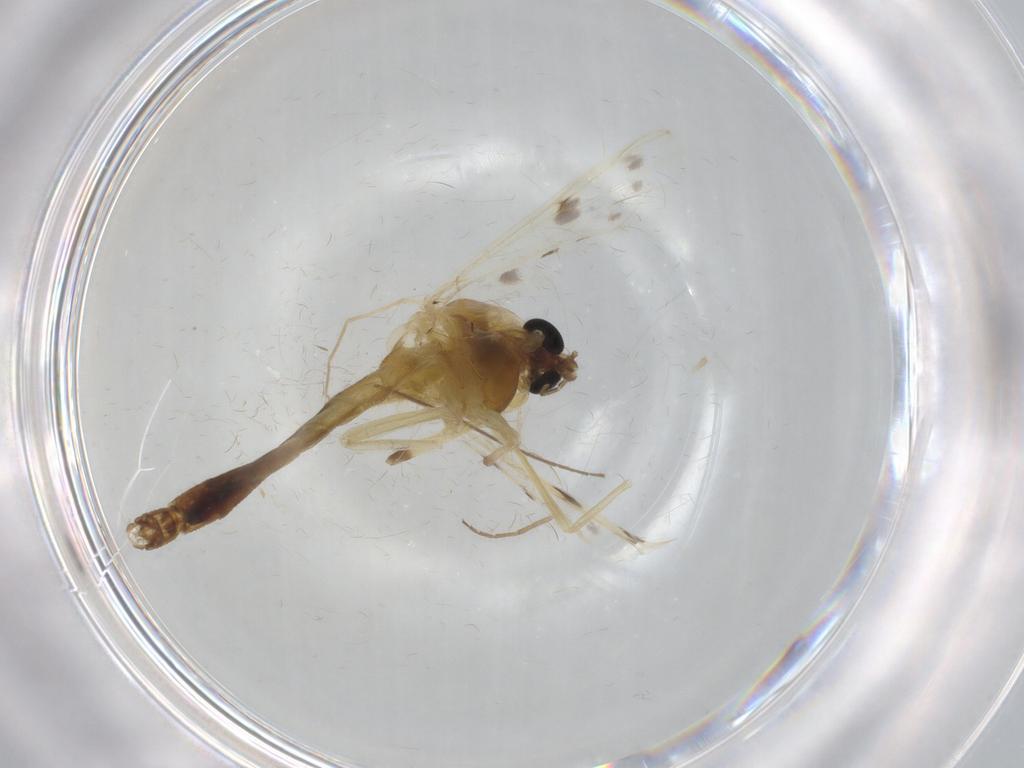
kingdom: Animalia
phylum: Arthropoda
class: Insecta
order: Diptera
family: Chironomidae
